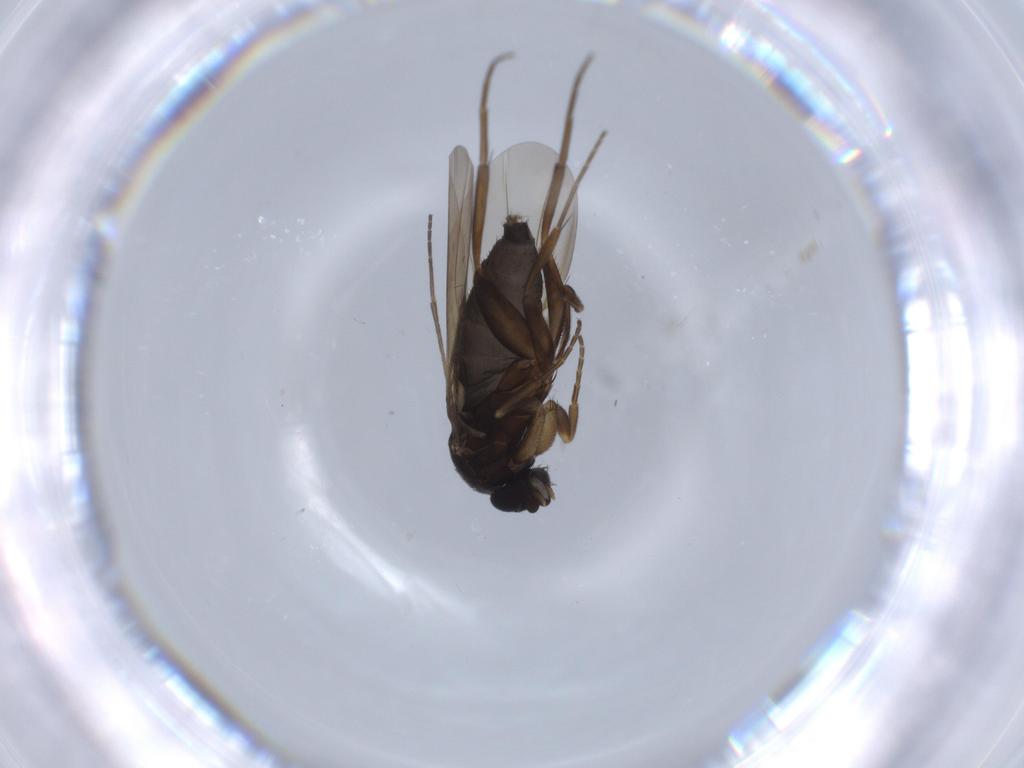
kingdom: Animalia
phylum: Arthropoda
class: Insecta
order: Diptera
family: Phoridae
